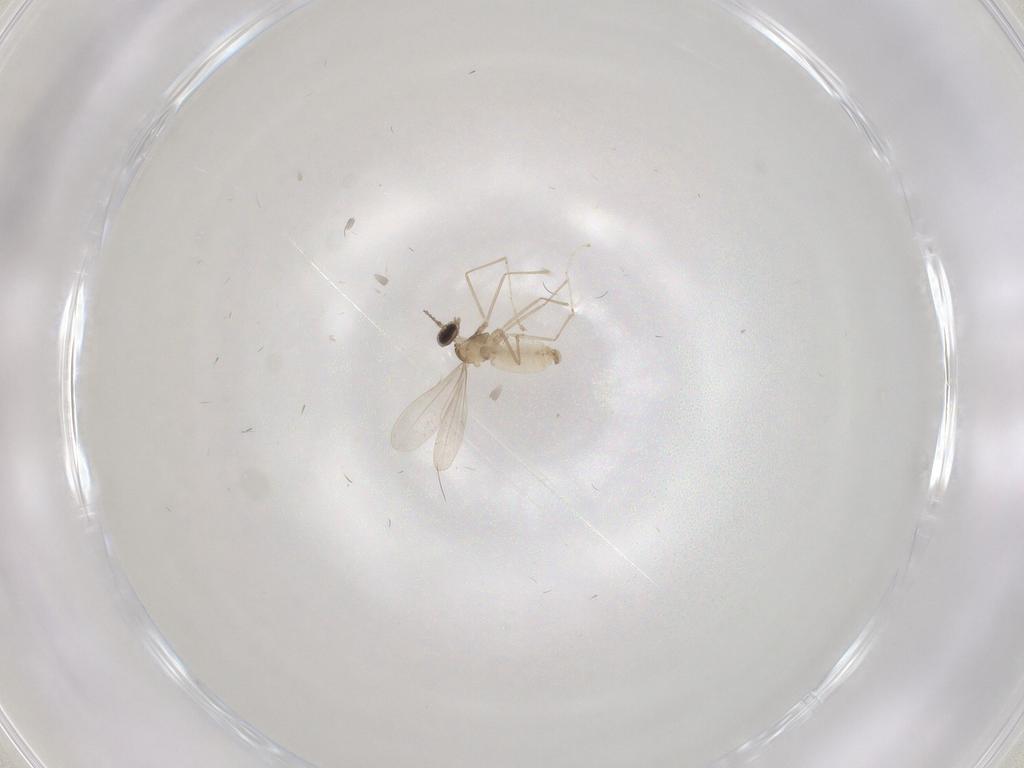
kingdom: Animalia
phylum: Arthropoda
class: Insecta
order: Diptera
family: Cecidomyiidae
